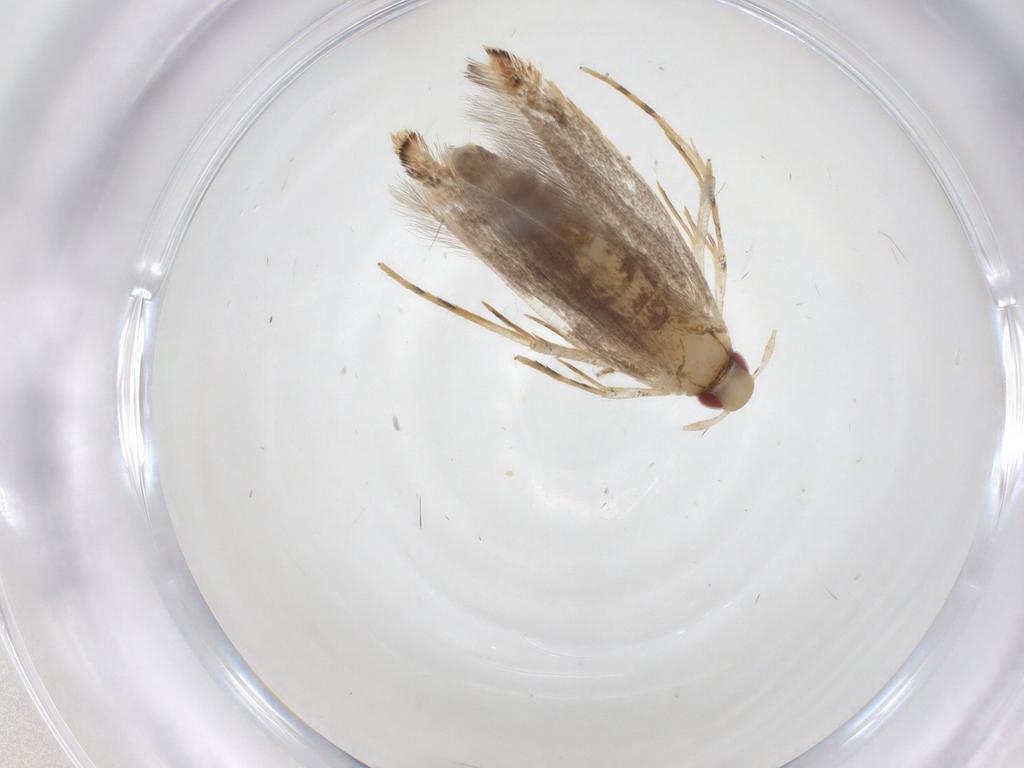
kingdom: Animalia
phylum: Arthropoda
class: Insecta
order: Lepidoptera
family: Cosmopterigidae
